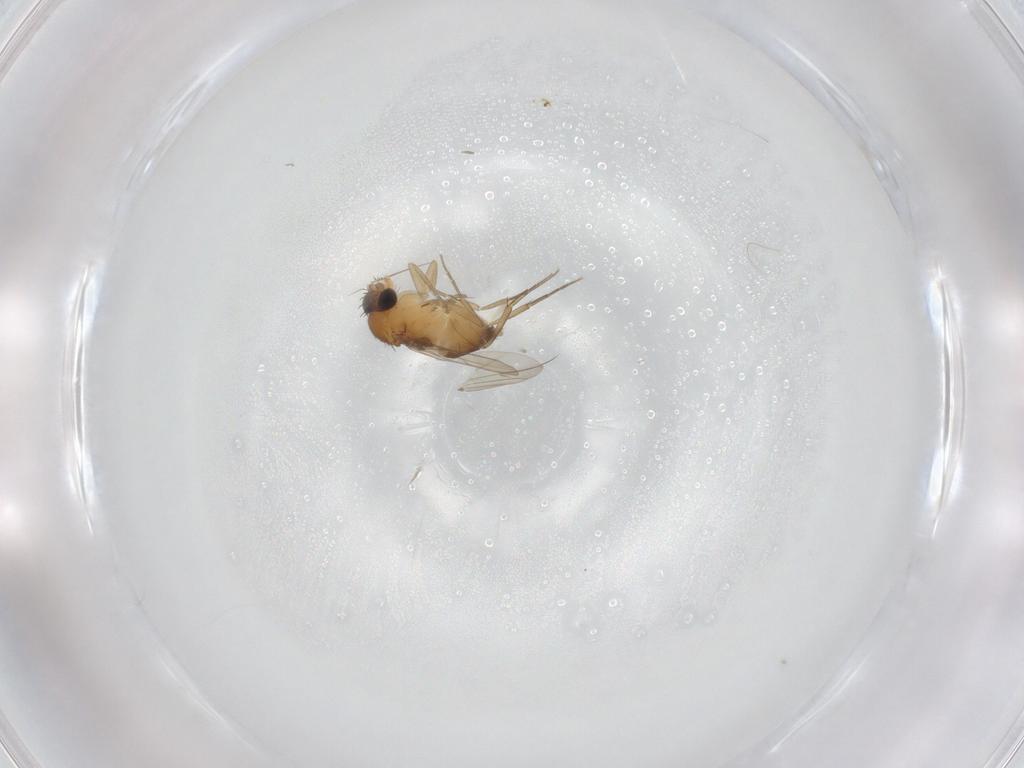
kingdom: Animalia
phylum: Arthropoda
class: Insecta
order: Diptera
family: Phoridae
